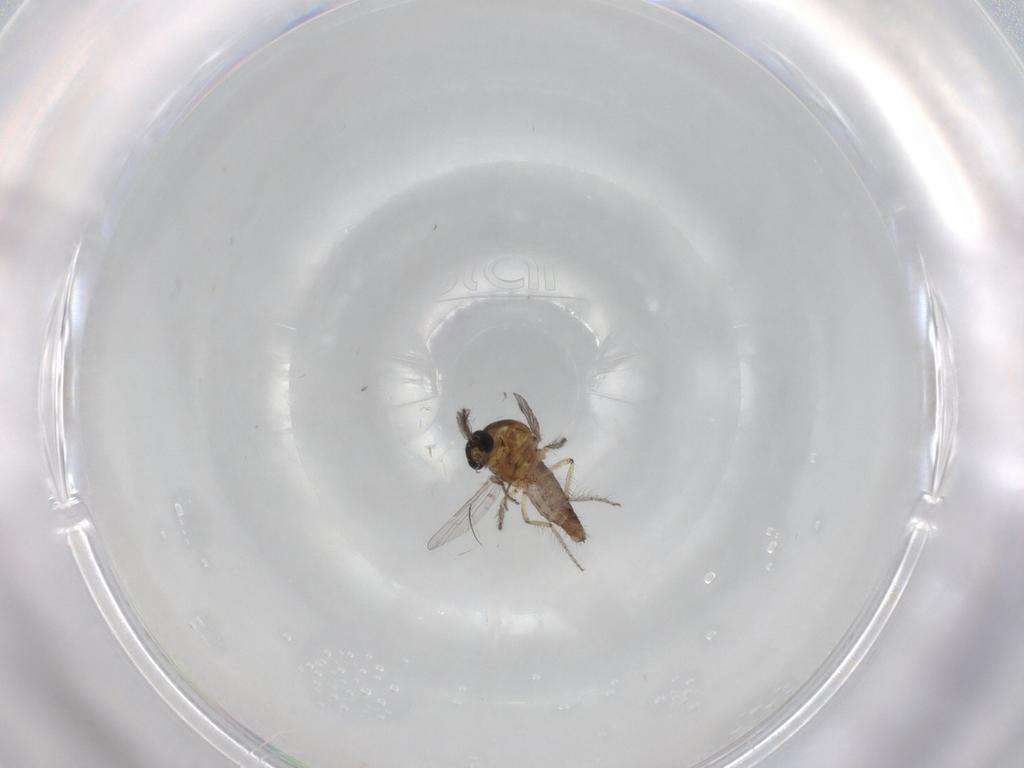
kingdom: Animalia
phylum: Arthropoda
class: Insecta
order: Diptera
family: Ceratopogonidae
